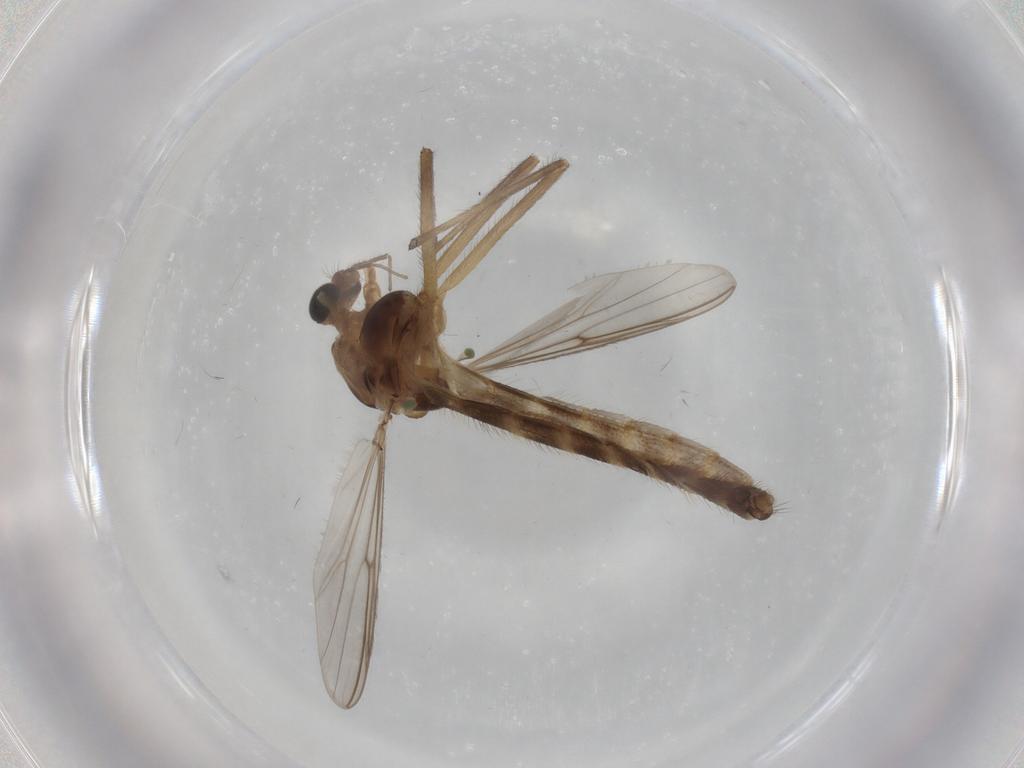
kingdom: Animalia
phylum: Arthropoda
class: Insecta
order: Diptera
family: Chironomidae
